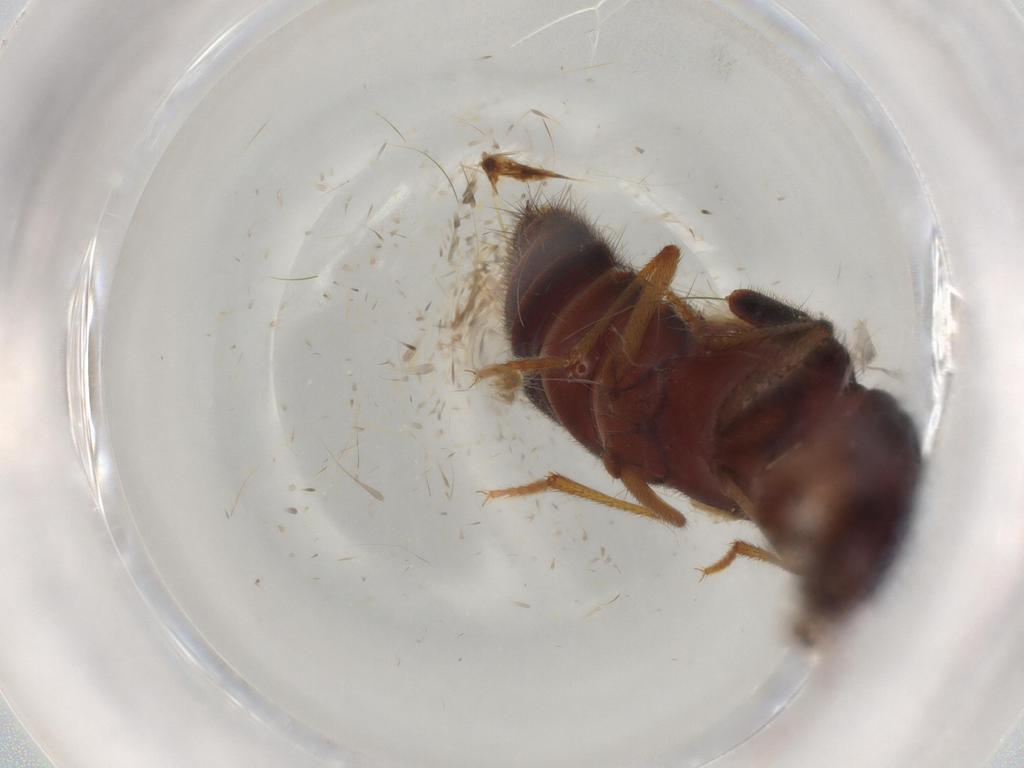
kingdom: Animalia
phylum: Arthropoda
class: Insecta
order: Coleoptera
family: Staphylinidae
